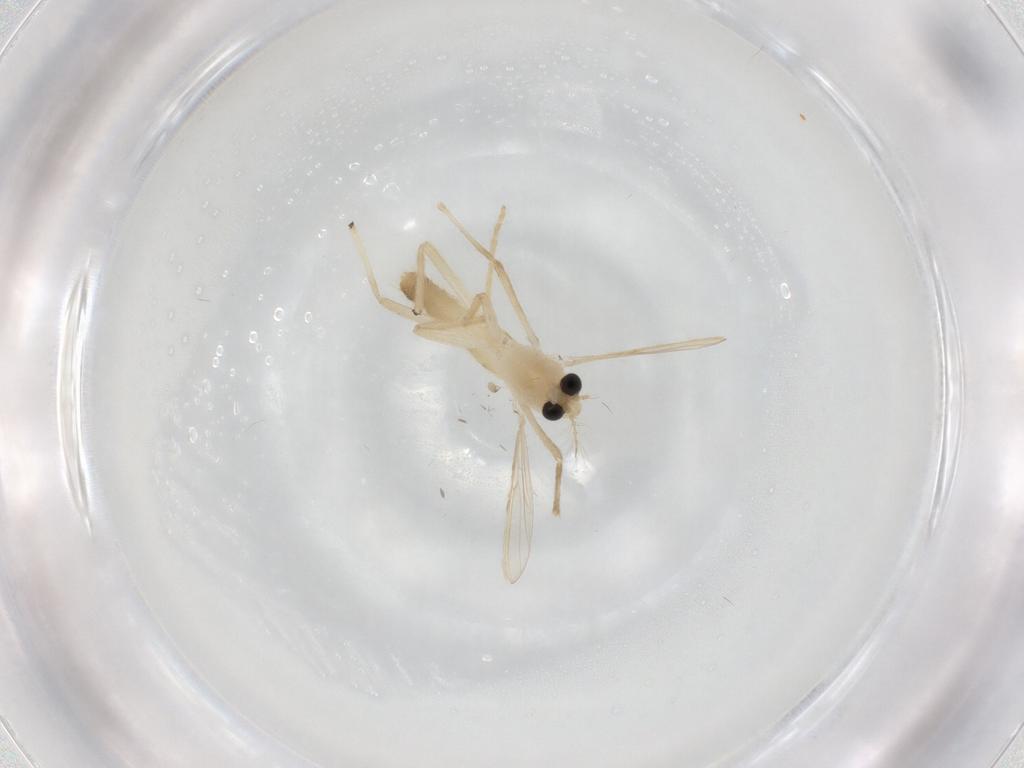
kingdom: Animalia
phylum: Arthropoda
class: Insecta
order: Diptera
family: Chironomidae
